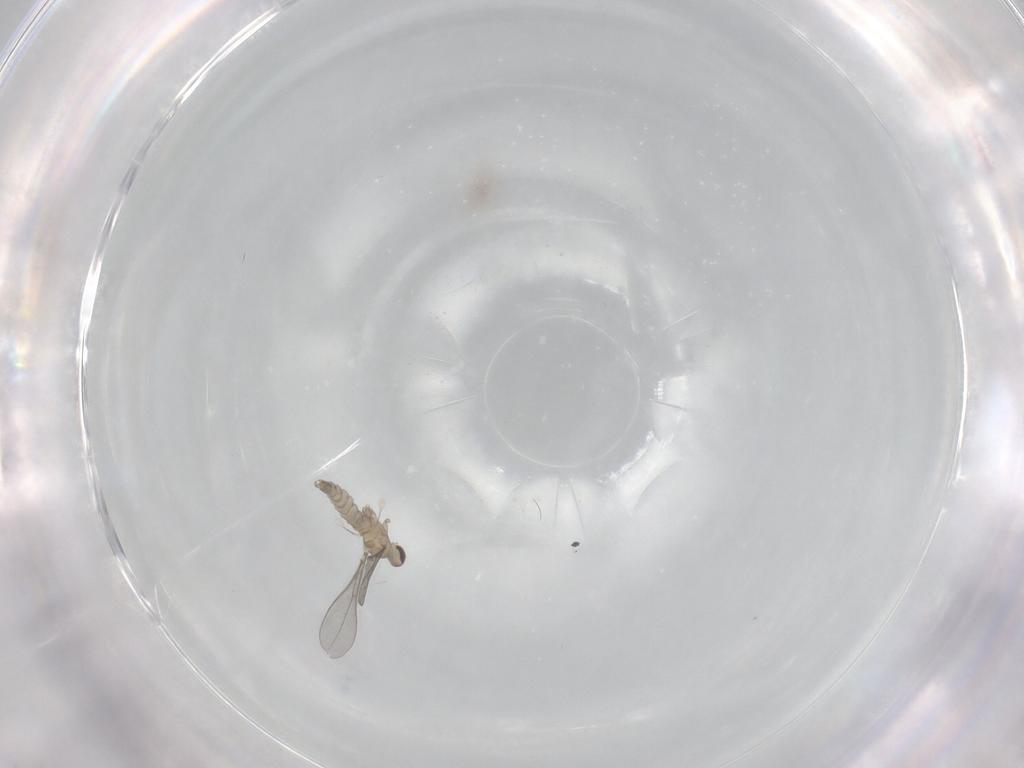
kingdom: Animalia
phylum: Arthropoda
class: Insecta
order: Diptera
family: Cecidomyiidae
